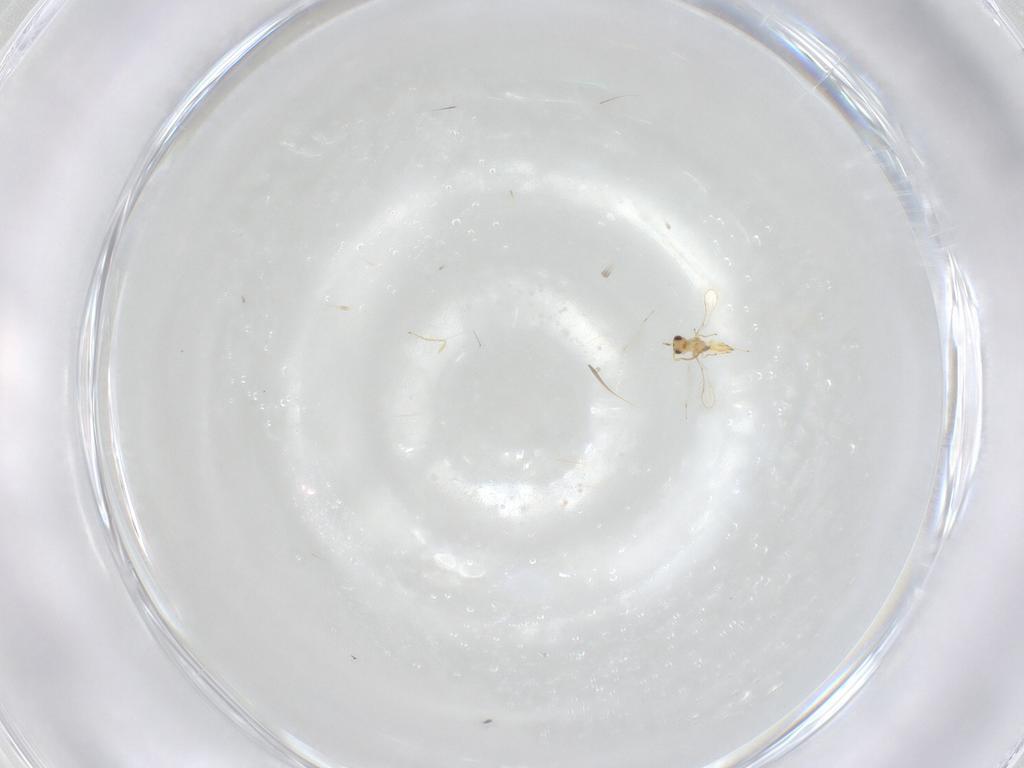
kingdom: Animalia
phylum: Arthropoda
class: Insecta
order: Hymenoptera
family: Mymaridae
